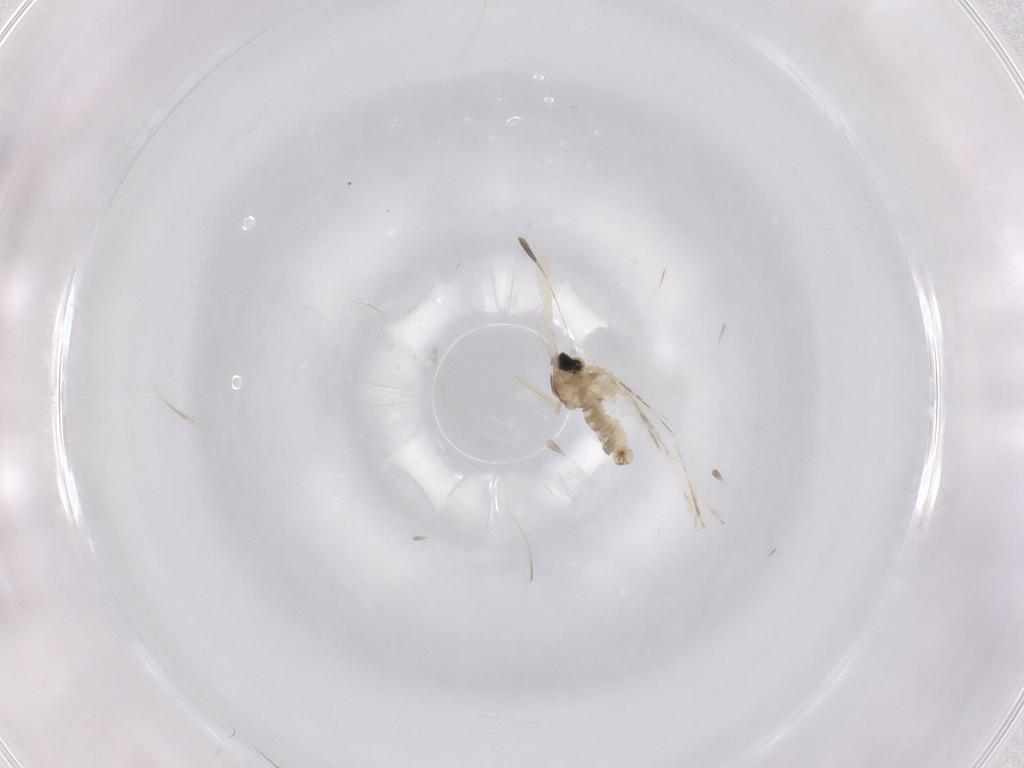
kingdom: Animalia
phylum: Arthropoda
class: Insecta
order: Diptera
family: Cecidomyiidae
